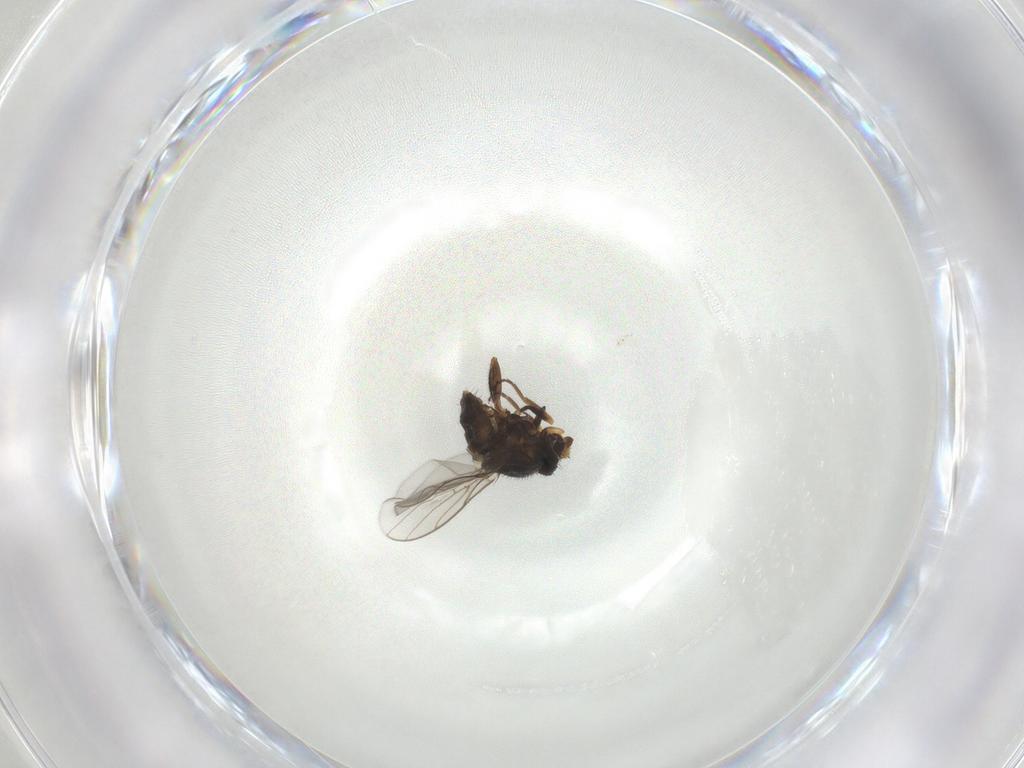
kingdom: Animalia
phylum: Arthropoda
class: Insecta
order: Diptera
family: Chloropidae
